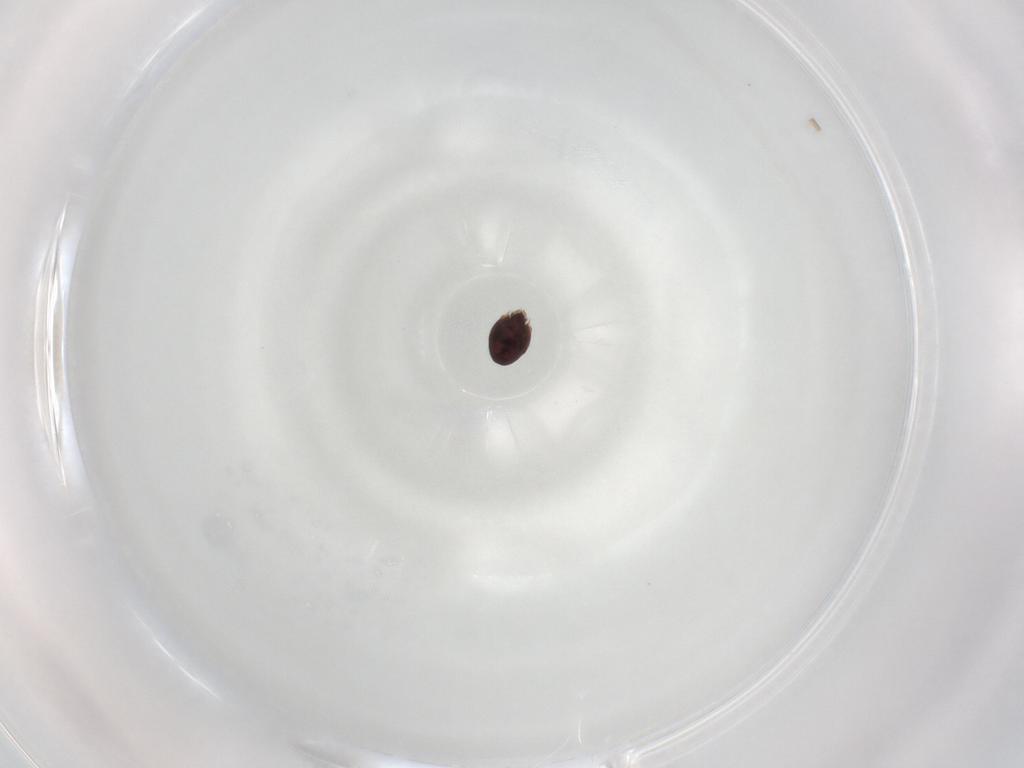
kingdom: Animalia
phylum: Arthropoda
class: Arachnida
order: Sarcoptiformes
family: Achipteriidae
